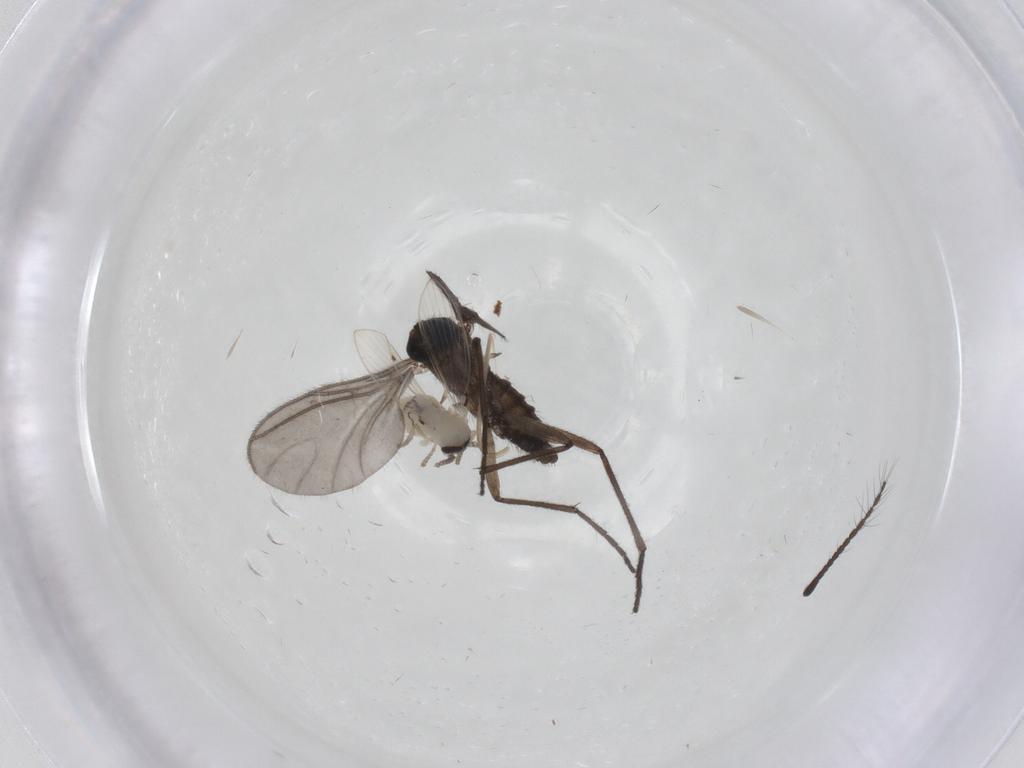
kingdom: Animalia
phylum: Arthropoda
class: Insecta
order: Diptera
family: Psychodidae
